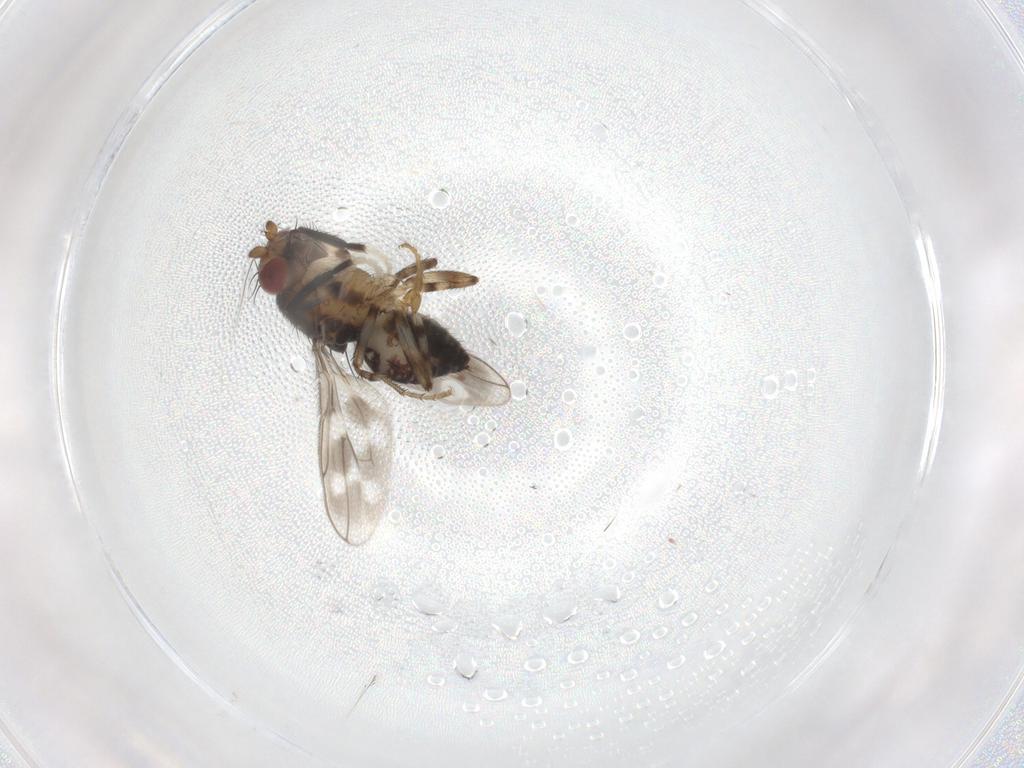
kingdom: Animalia
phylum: Arthropoda
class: Insecta
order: Diptera
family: Sphaeroceridae
